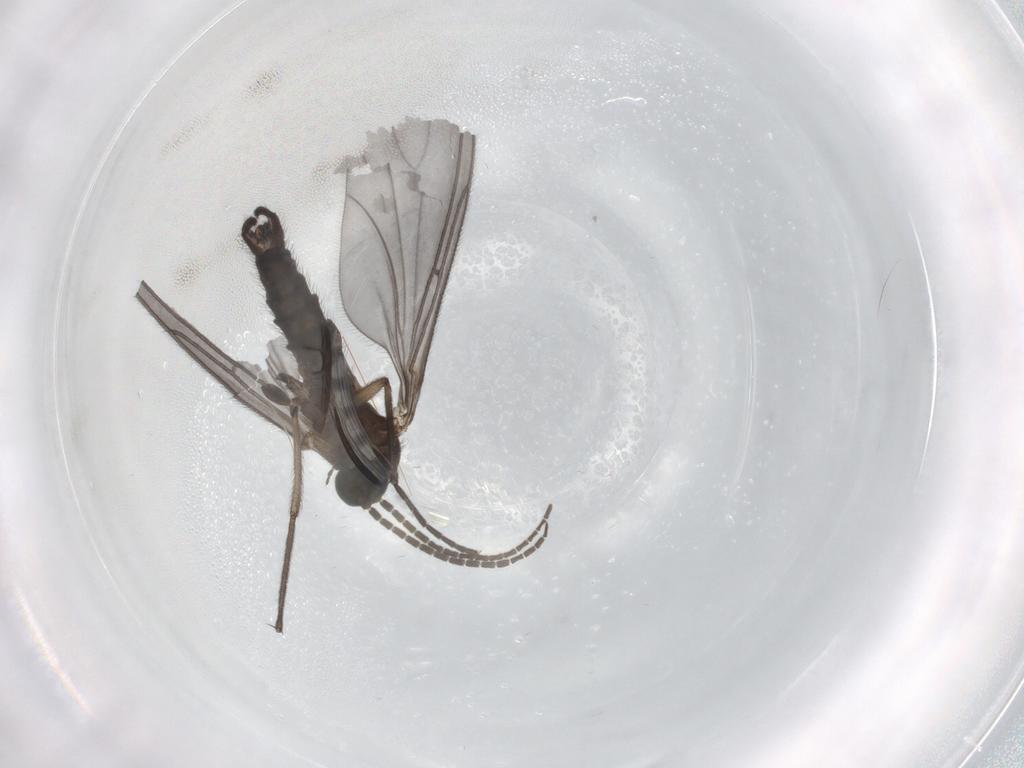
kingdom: Animalia
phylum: Arthropoda
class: Insecta
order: Diptera
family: Sciaridae
